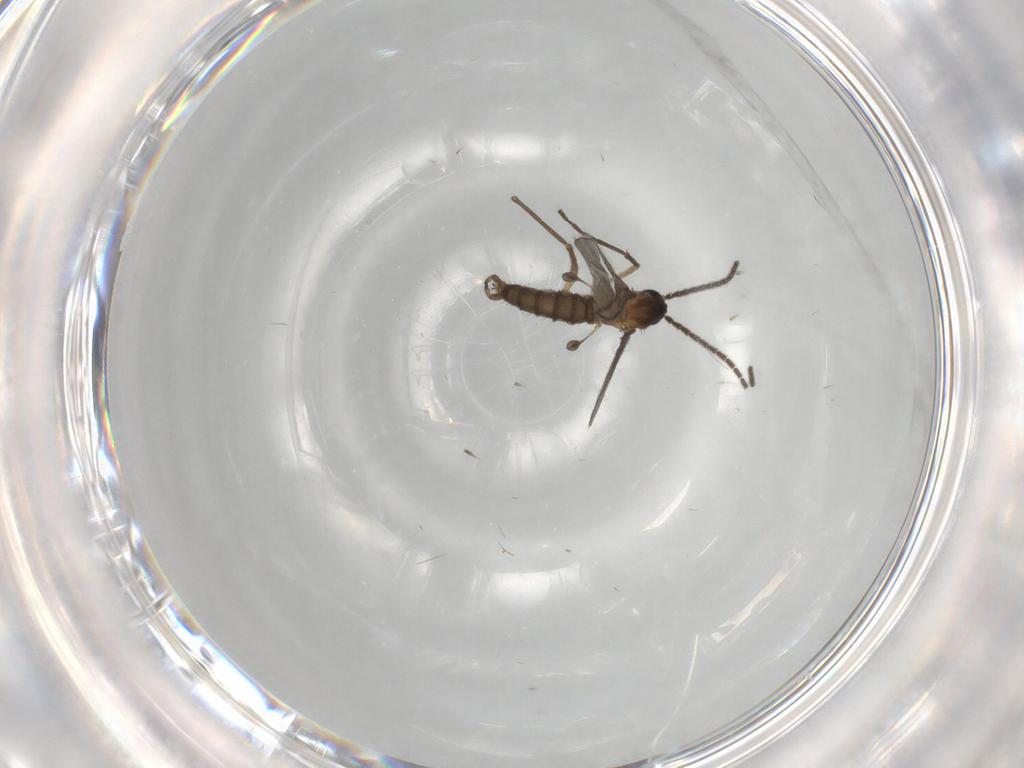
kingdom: Animalia
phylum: Arthropoda
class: Insecta
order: Diptera
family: Sciaridae
